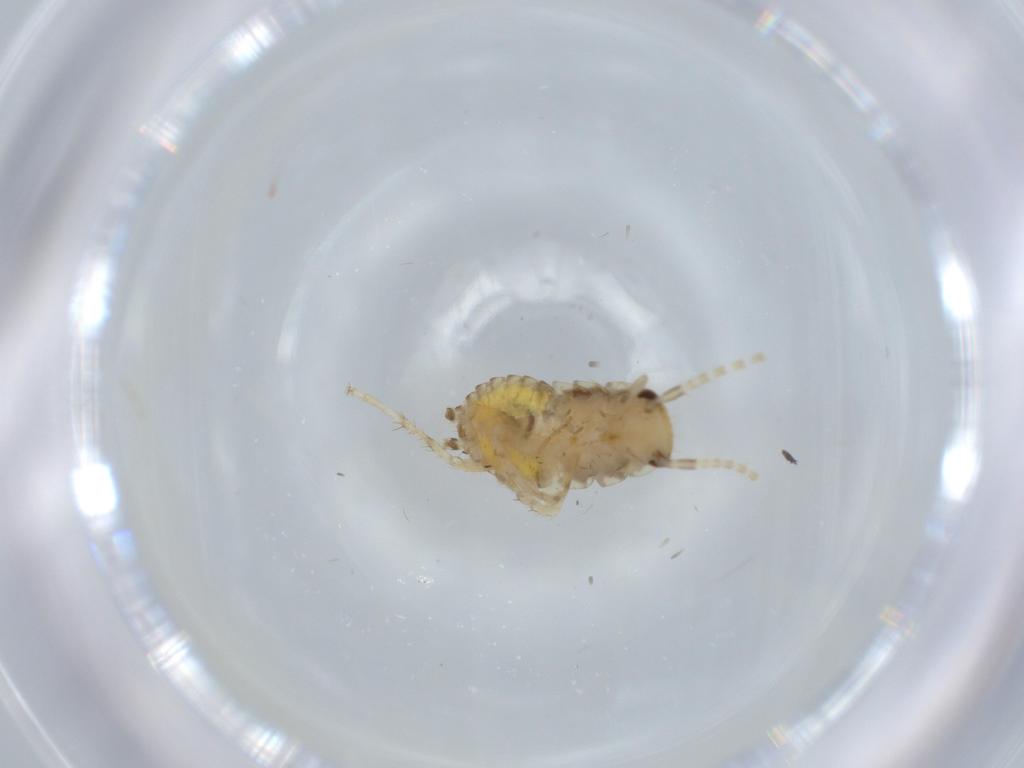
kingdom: Animalia
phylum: Arthropoda
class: Insecta
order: Blattodea
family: Ectobiidae
